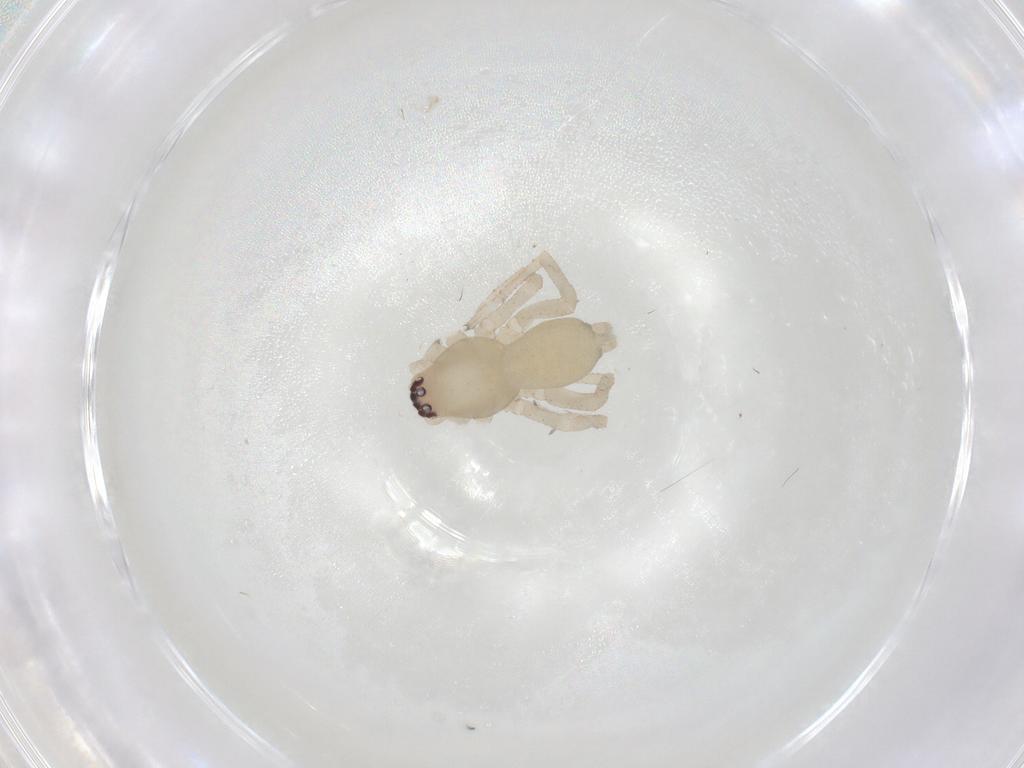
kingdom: Animalia
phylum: Arthropoda
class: Arachnida
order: Araneae
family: Clubionidae
